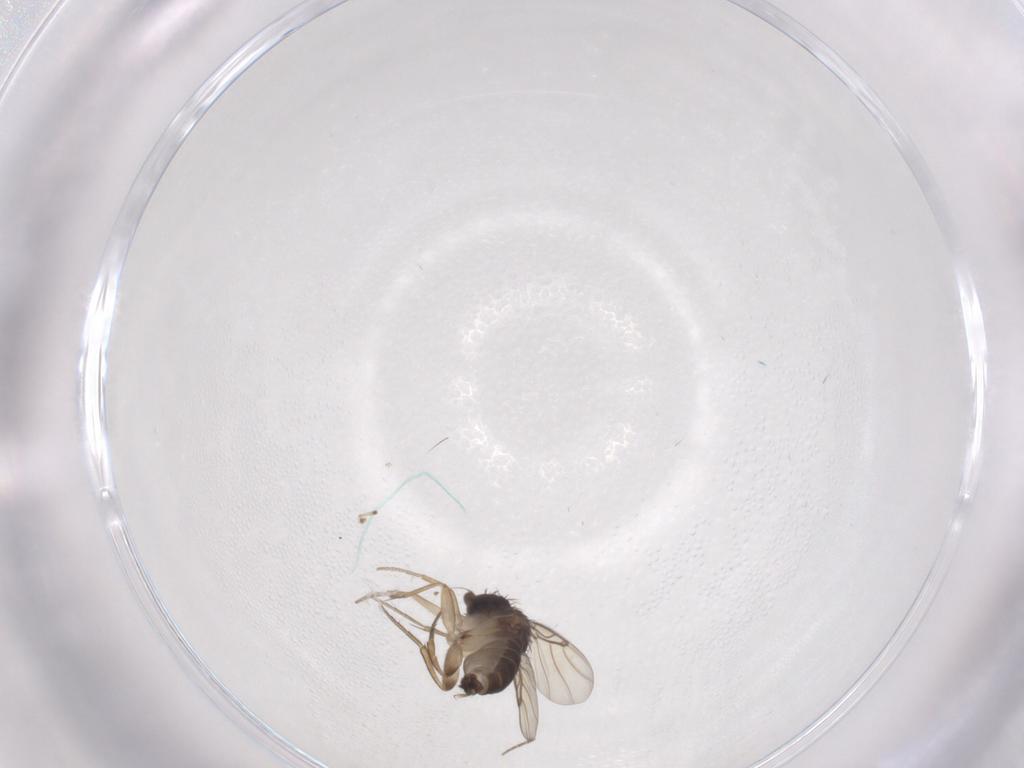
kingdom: Animalia
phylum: Arthropoda
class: Insecta
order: Diptera
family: Phoridae
